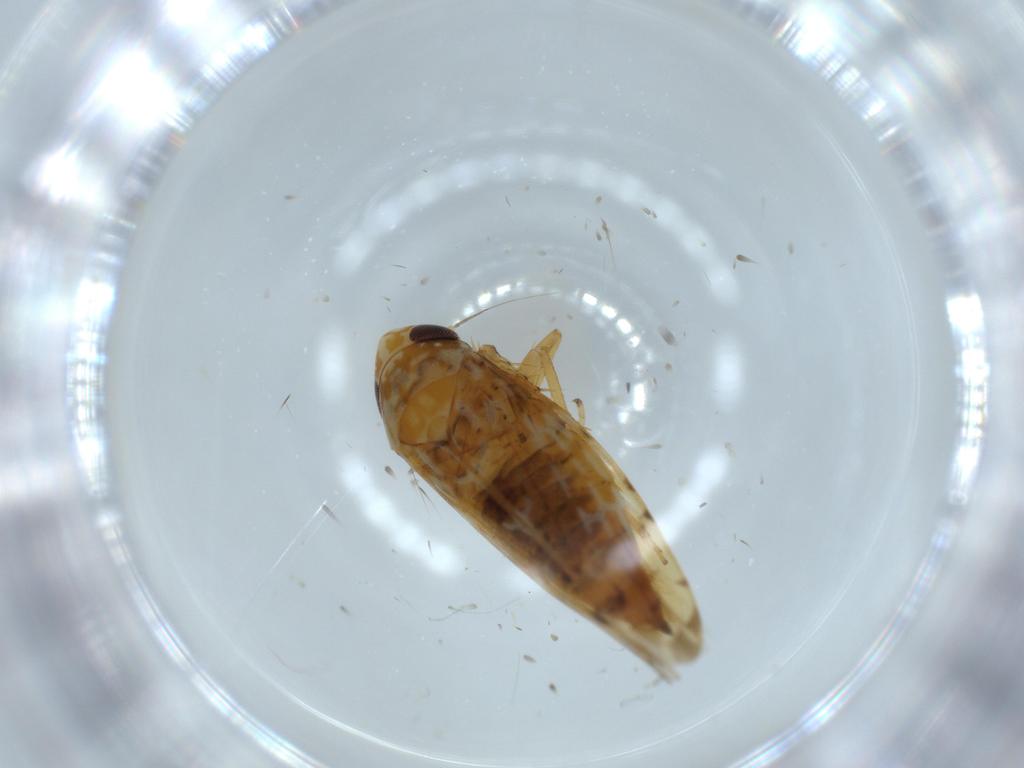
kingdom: Animalia
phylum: Arthropoda
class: Insecta
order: Hemiptera
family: Cicadellidae
